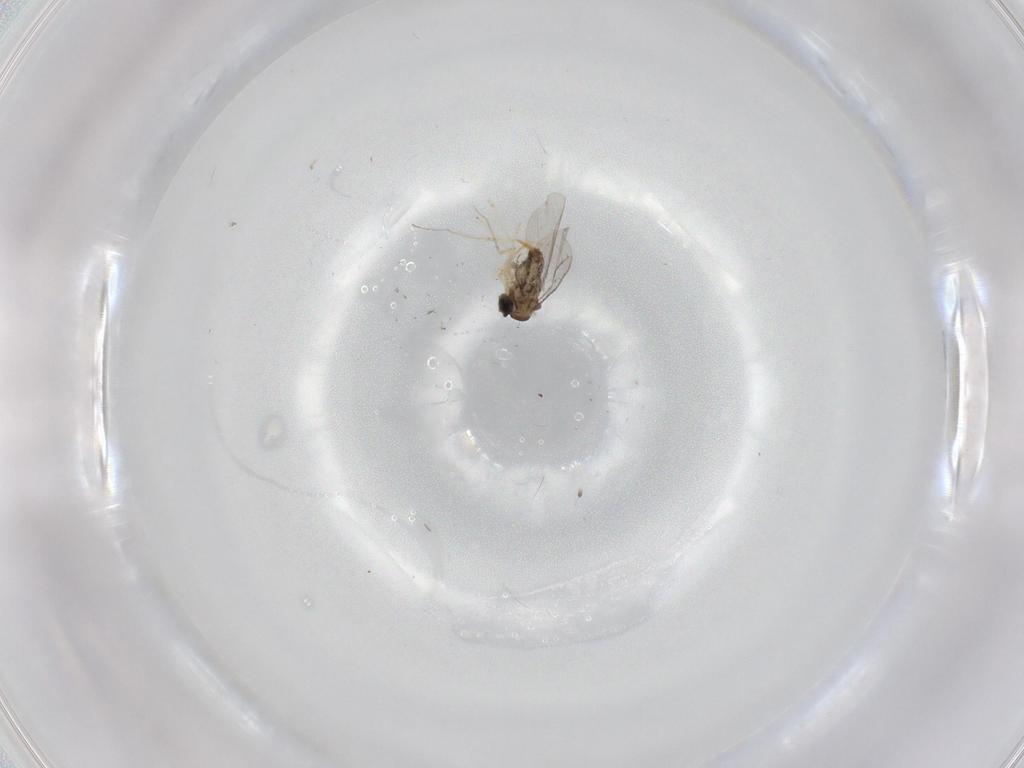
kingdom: Animalia
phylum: Arthropoda
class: Insecta
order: Diptera
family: Cecidomyiidae
